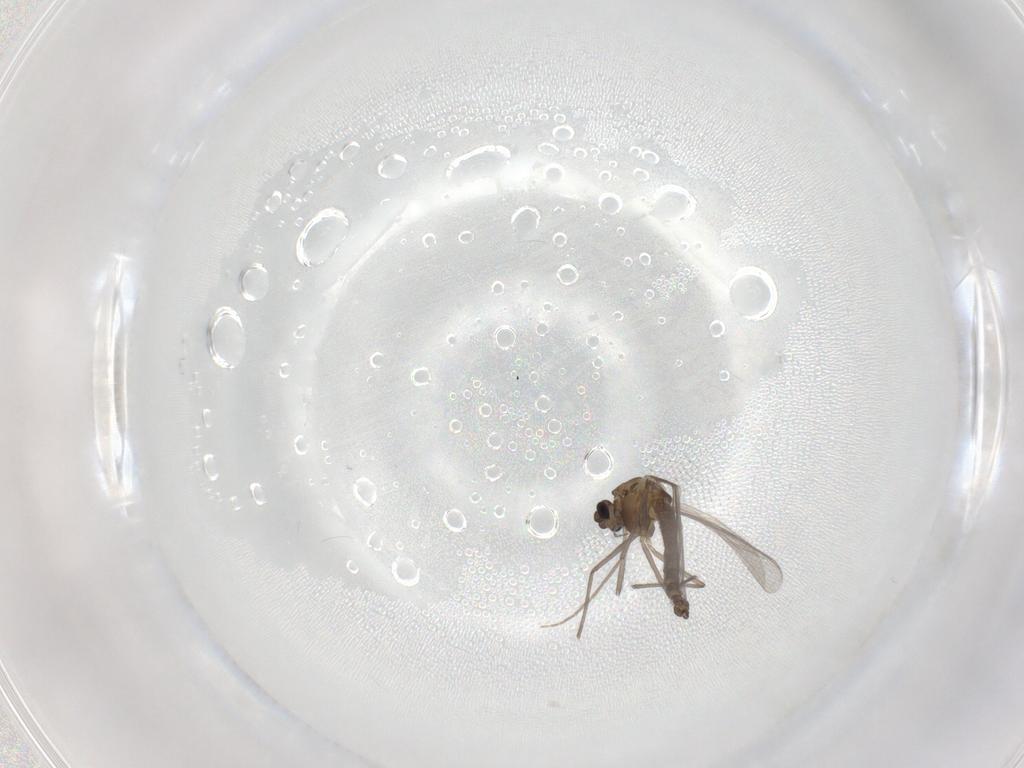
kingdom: Animalia
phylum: Arthropoda
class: Insecta
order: Diptera
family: Chironomidae
